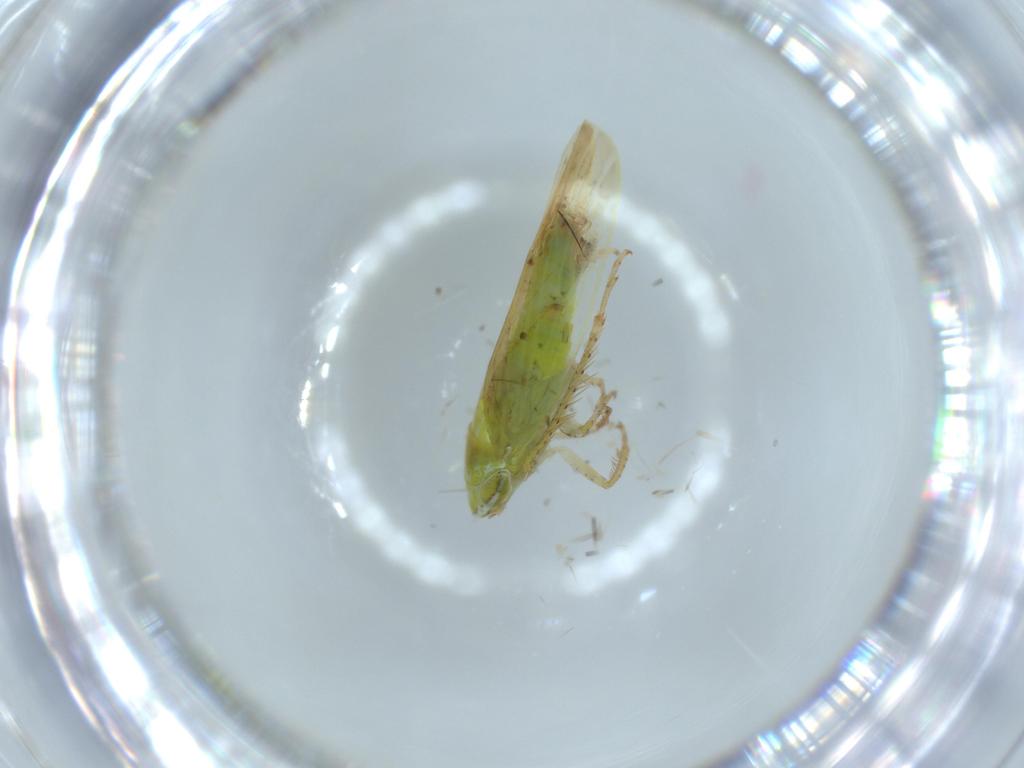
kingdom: Animalia
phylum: Arthropoda
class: Insecta
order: Hemiptera
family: Cicadellidae
